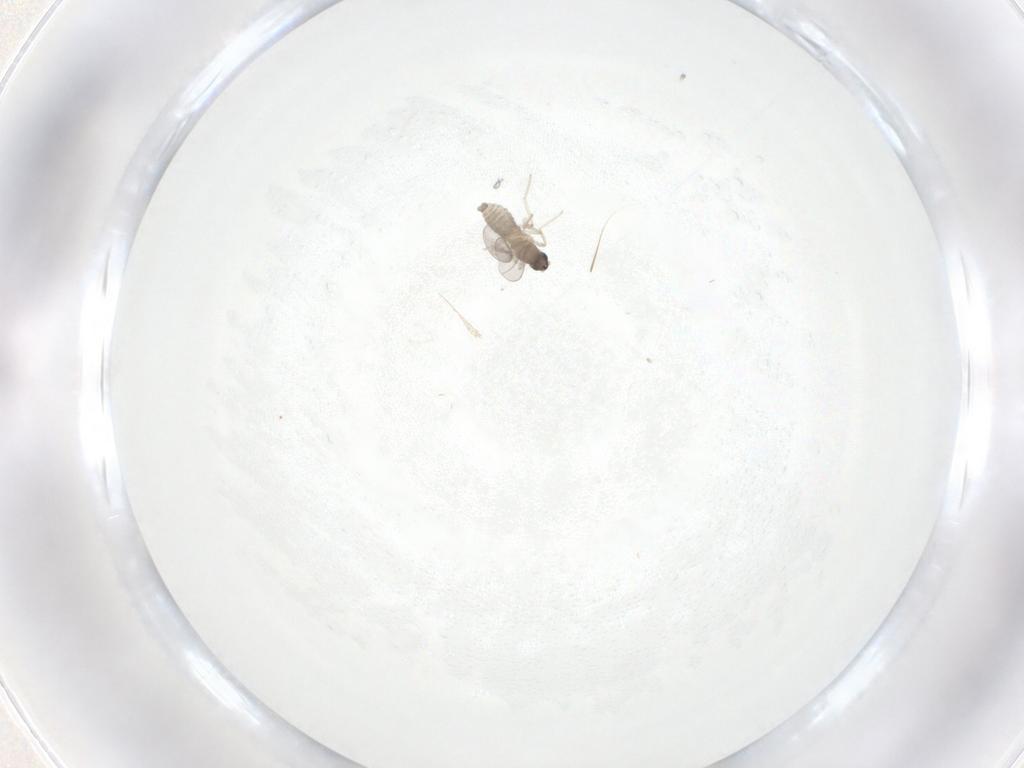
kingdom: Animalia
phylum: Arthropoda
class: Insecta
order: Diptera
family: Cecidomyiidae
